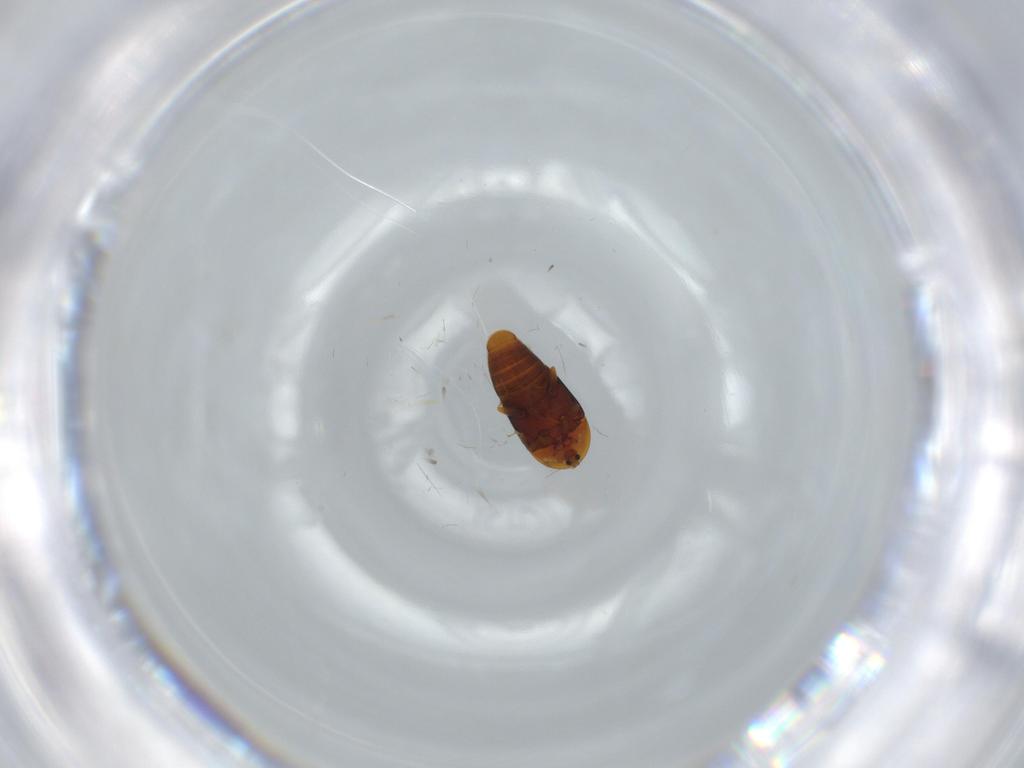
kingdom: Animalia
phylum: Arthropoda
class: Insecta
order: Coleoptera
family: Corylophidae
